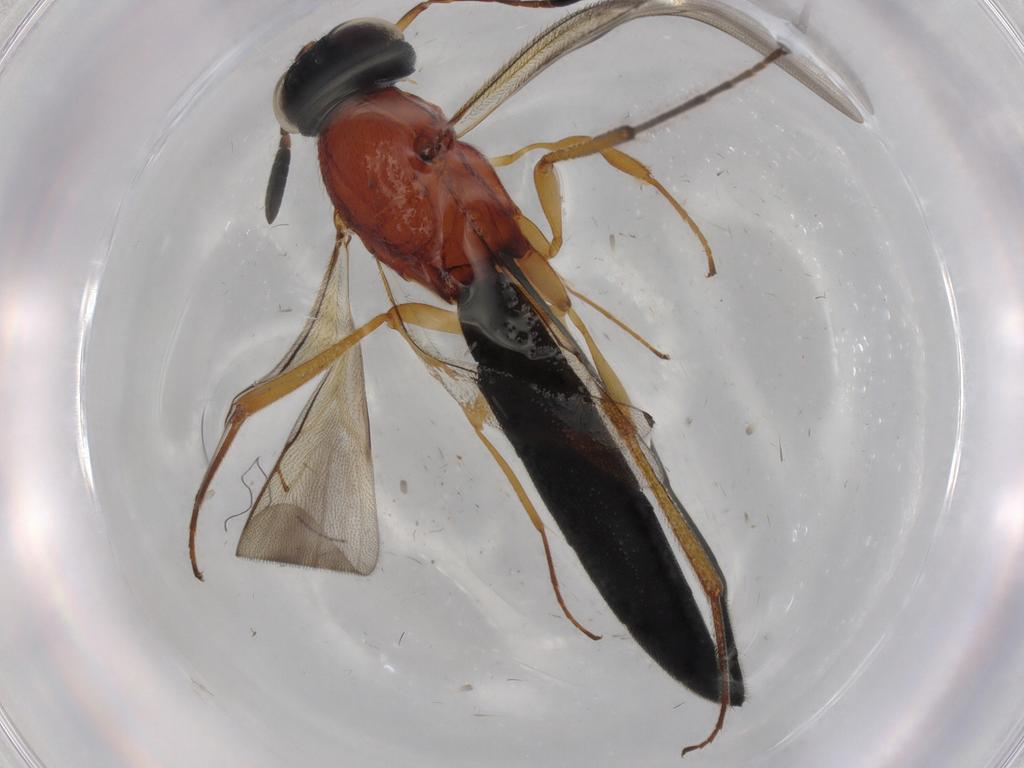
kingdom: Animalia
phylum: Arthropoda
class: Insecta
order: Hymenoptera
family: Scelionidae
